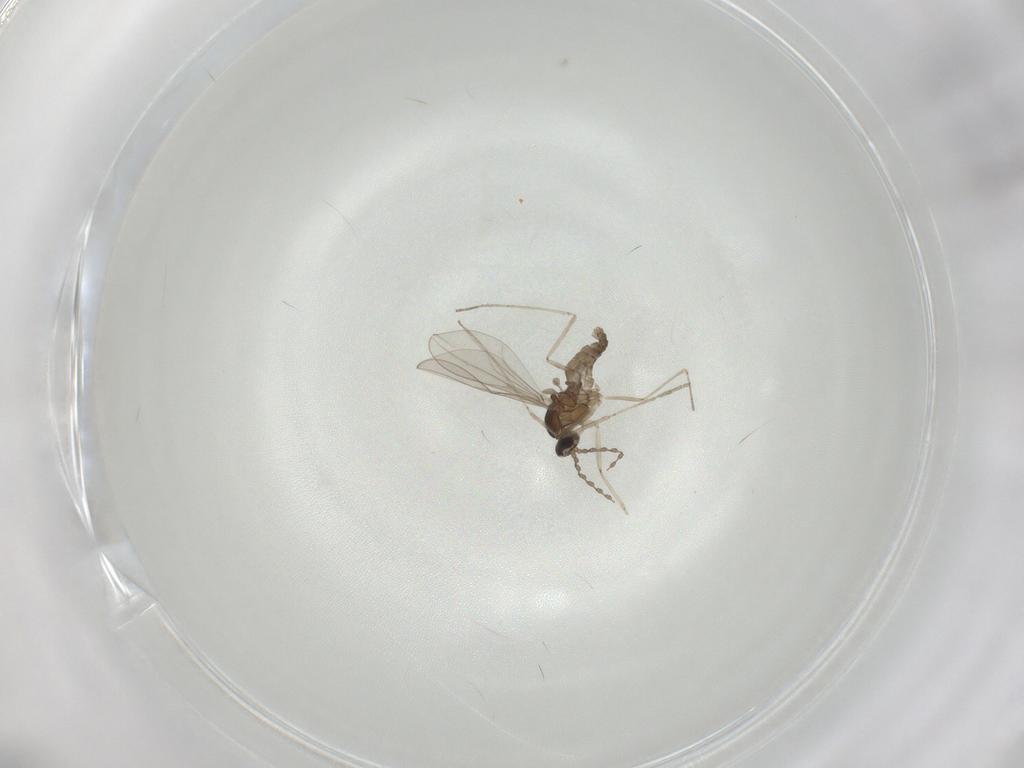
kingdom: Animalia
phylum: Arthropoda
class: Insecta
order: Diptera
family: Cecidomyiidae
